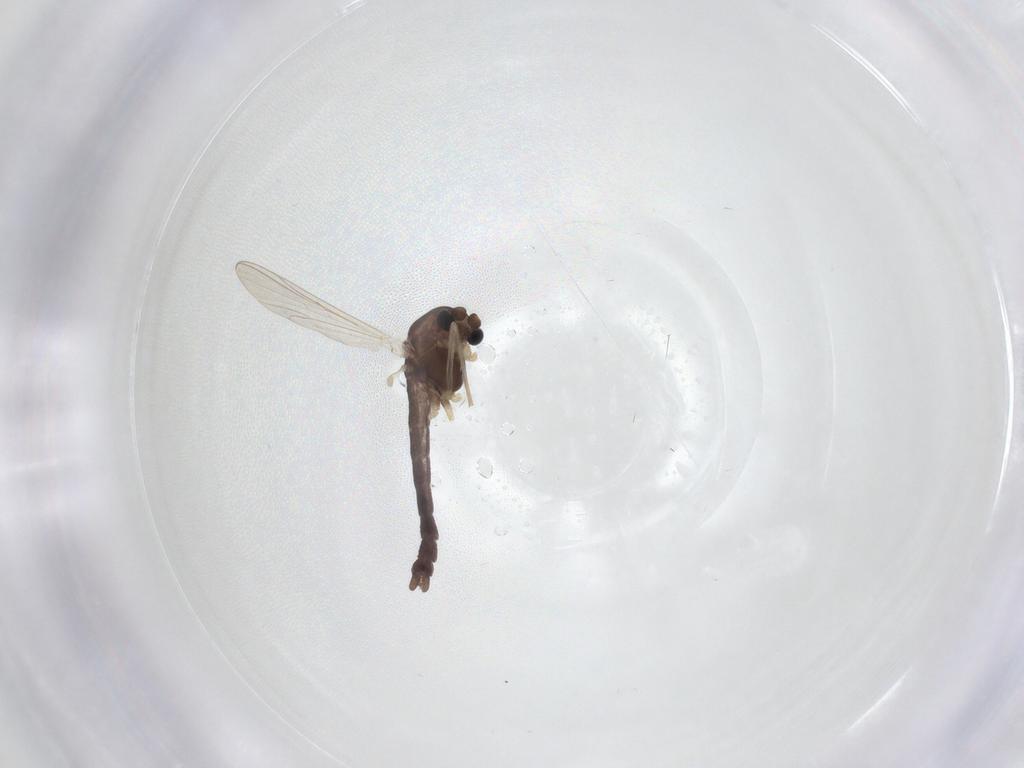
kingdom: Animalia
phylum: Arthropoda
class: Insecta
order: Diptera
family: Chironomidae
